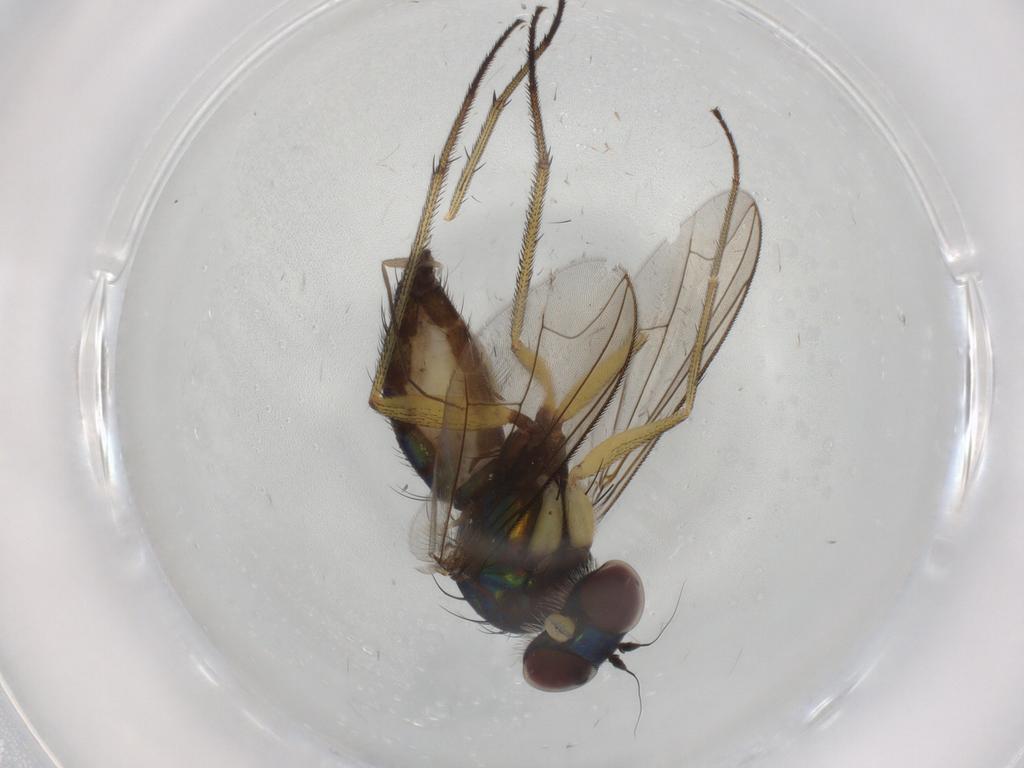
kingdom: Animalia
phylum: Arthropoda
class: Insecta
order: Diptera
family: Dolichopodidae
